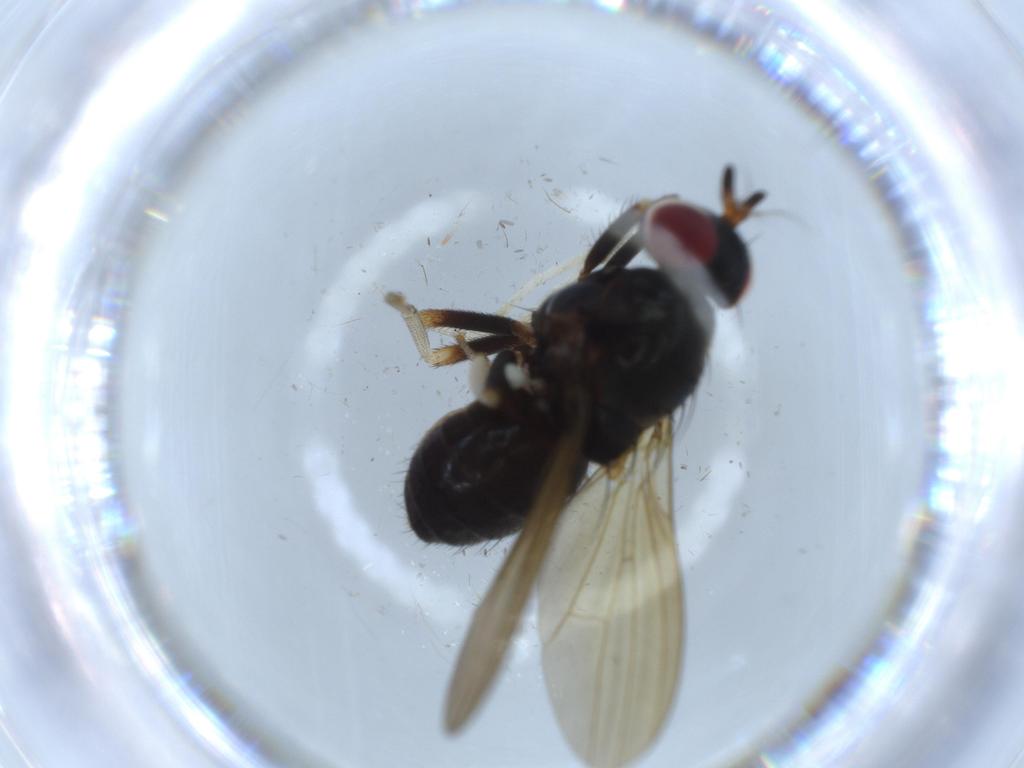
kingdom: Animalia
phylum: Arthropoda
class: Insecta
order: Diptera
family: Lauxaniidae
